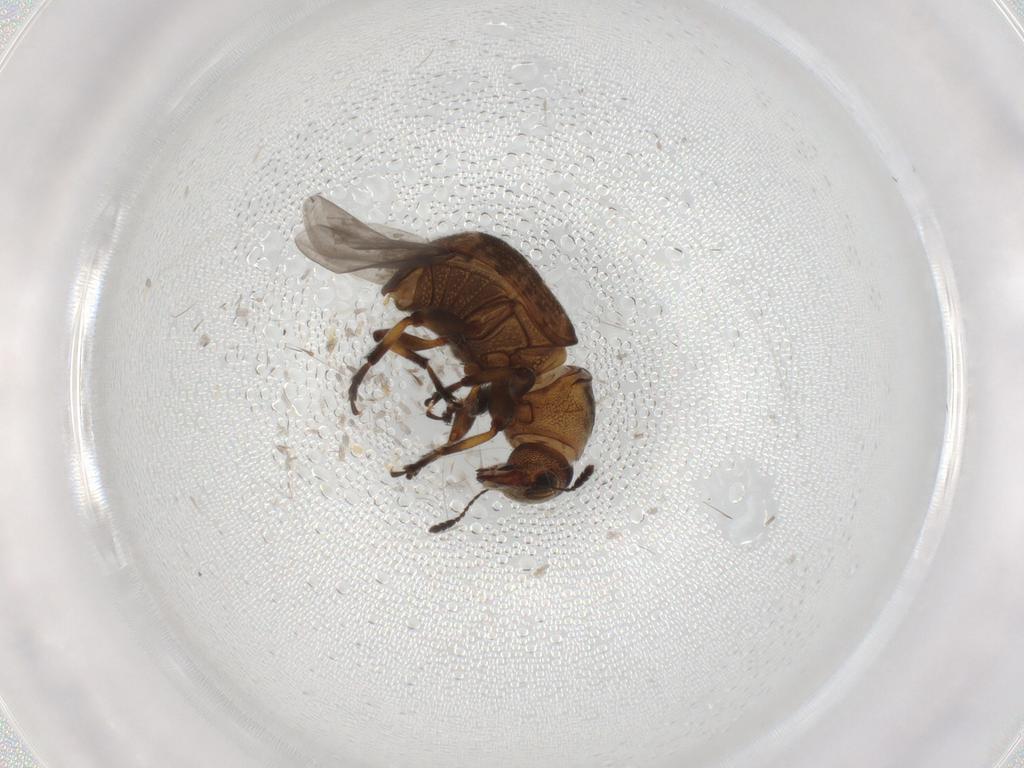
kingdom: Animalia
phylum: Arthropoda
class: Insecta
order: Coleoptera
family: Anthribidae
